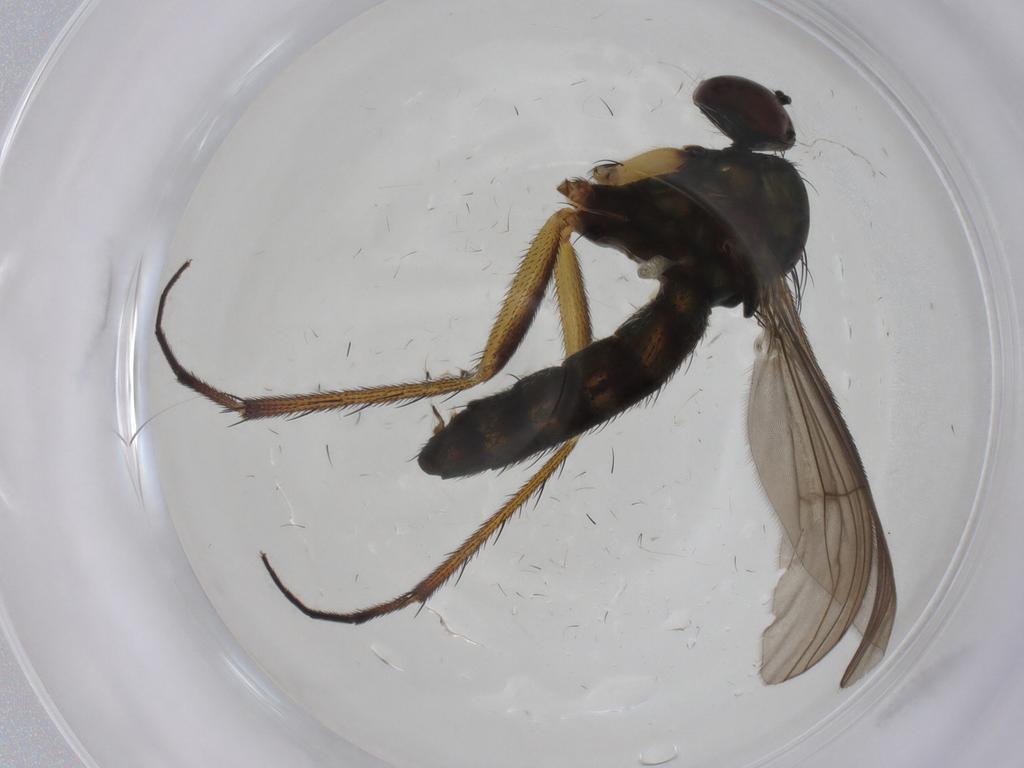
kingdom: Animalia
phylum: Arthropoda
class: Insecta
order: Diptera
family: Dolichopodidae
